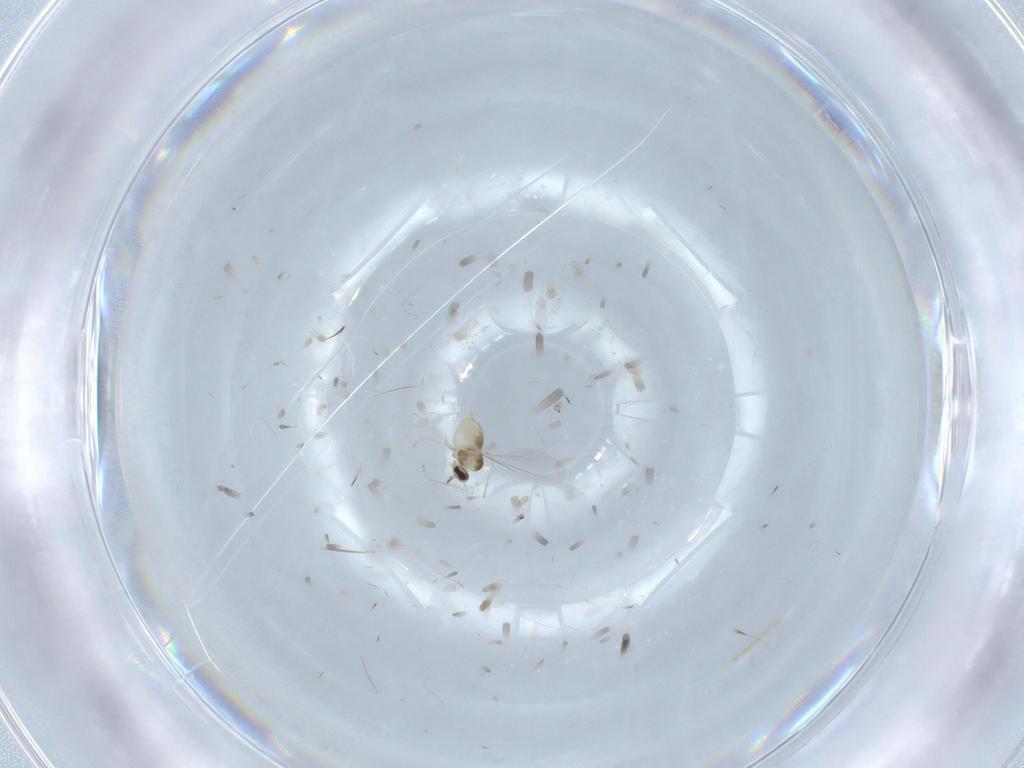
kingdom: Animalia
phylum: Arthropoda
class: Insecta
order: Diptera
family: Cecidomyiidae
